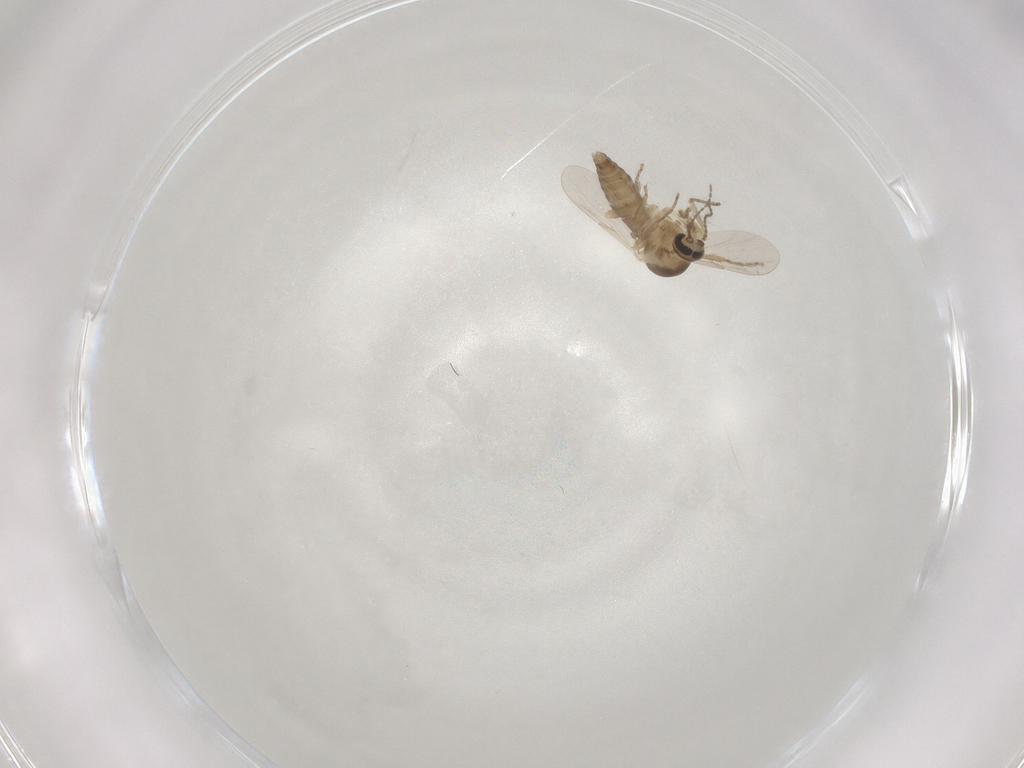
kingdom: Animalia
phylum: Arthropoda
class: Insecta
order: Diptera
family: Ceratopogonidae
